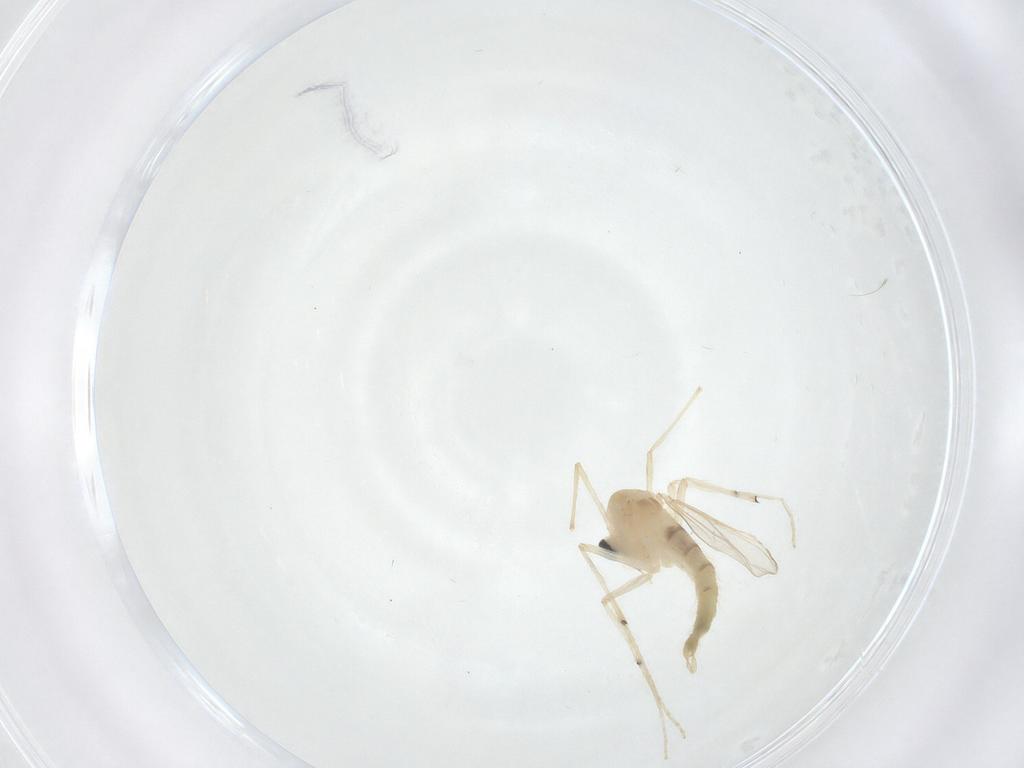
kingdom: Animalia
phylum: Arthropoda
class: Insecta
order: Diptera
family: Chironomidae
